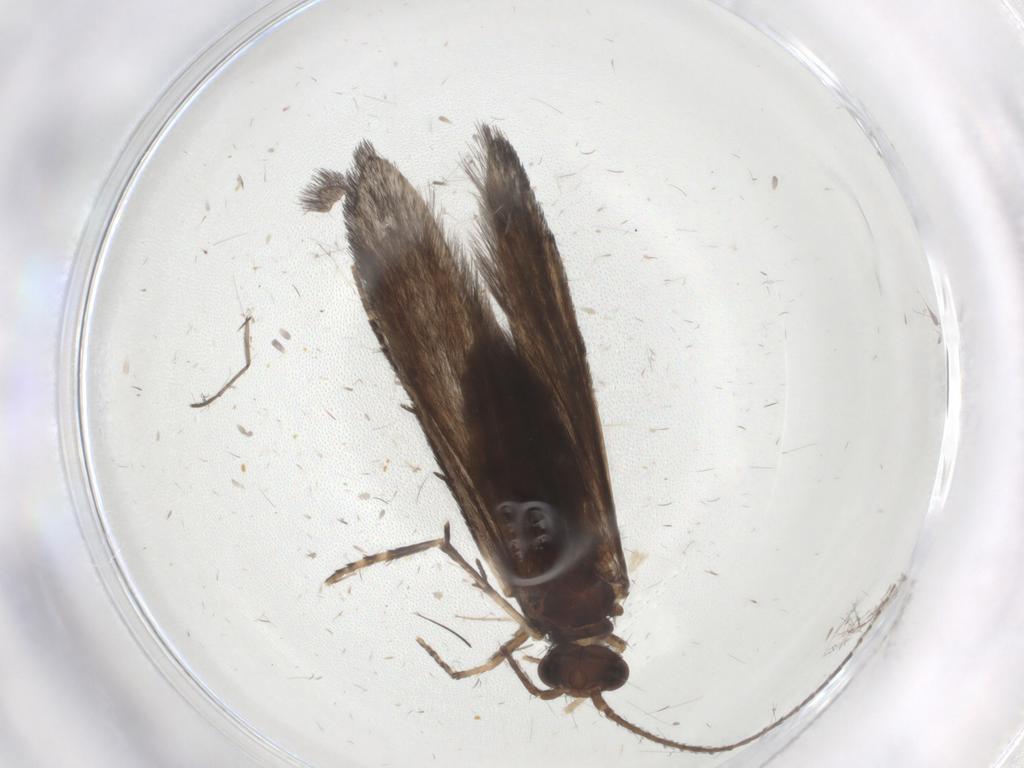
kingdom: Animalia
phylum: Arthropoda
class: Insecta
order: Trichoptera
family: Xiphocentronidae
